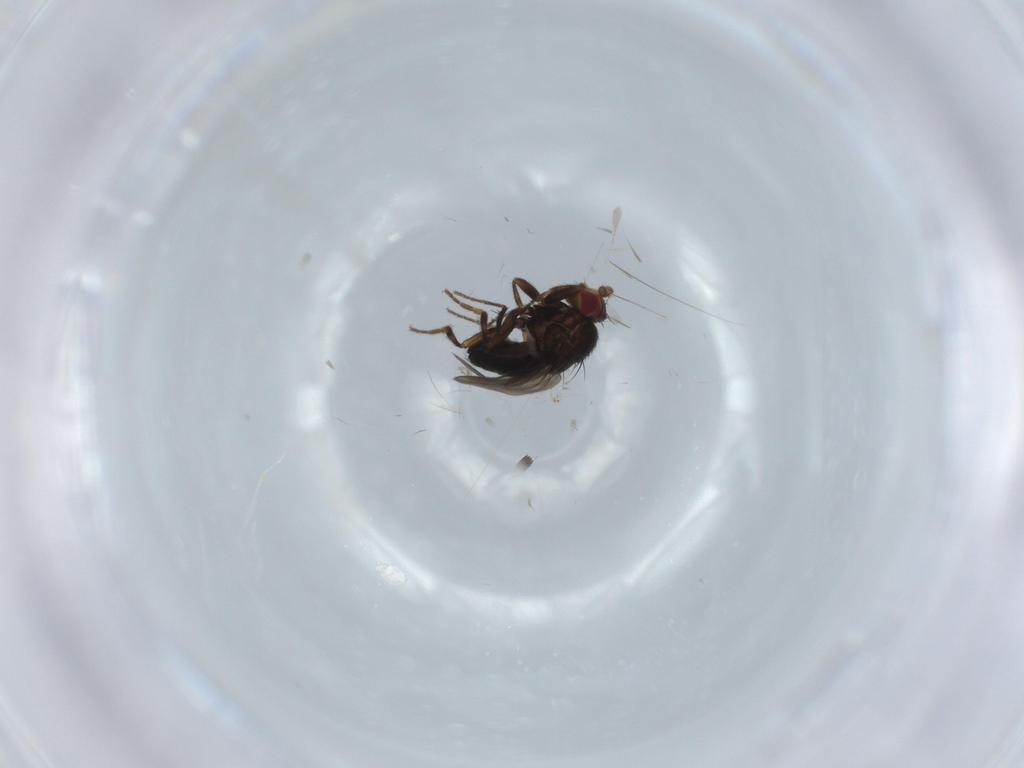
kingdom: Animalia
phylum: Arthropoda
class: Insecta
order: Diptera
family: Sphaeroceridae
